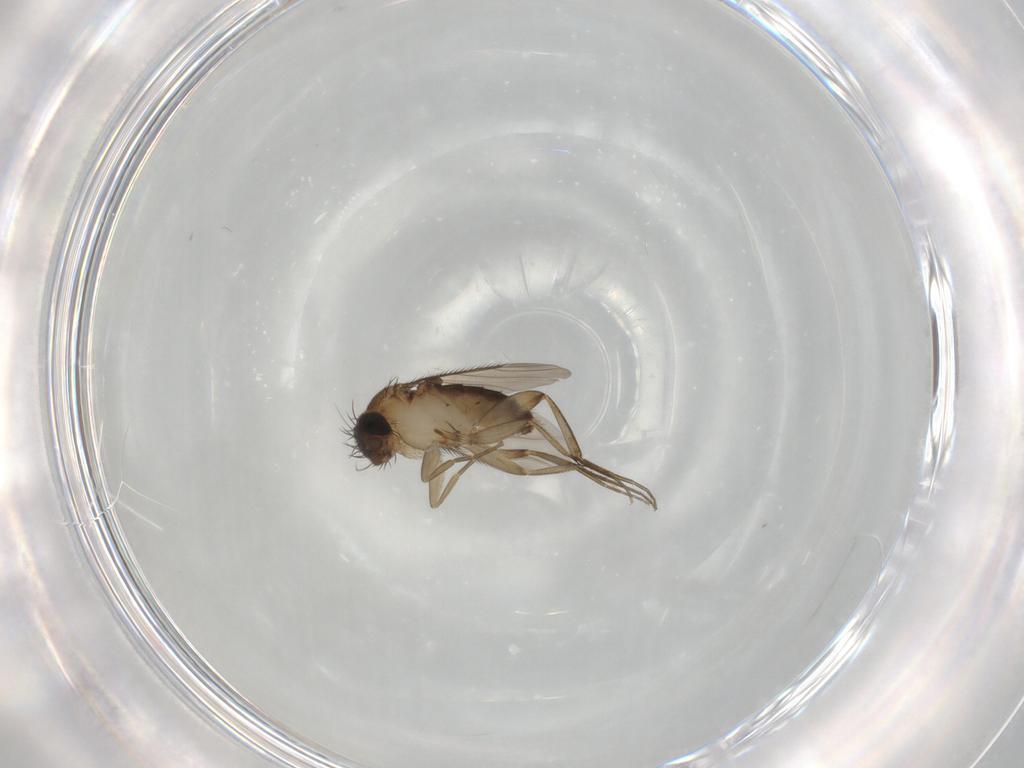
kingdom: Animalia
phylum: Arthropoda
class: Insecta
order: Diptera
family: Phoridae
